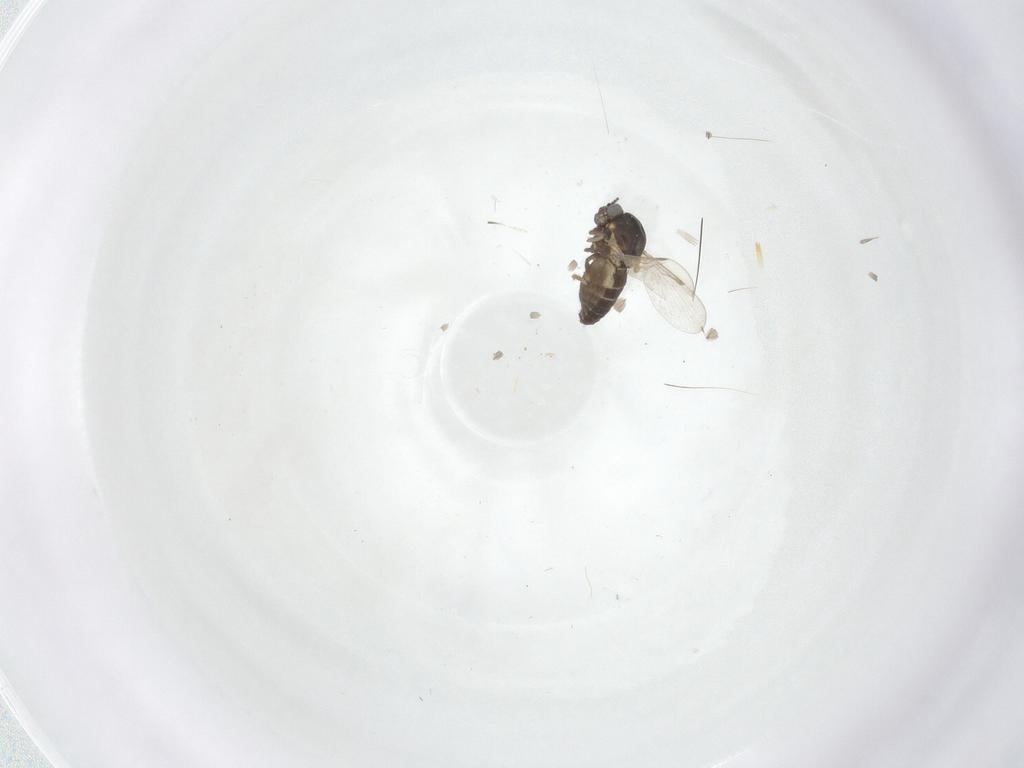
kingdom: Animalia
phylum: Arthropoda
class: Insecta
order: Diptera
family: Ceratopogonidae
